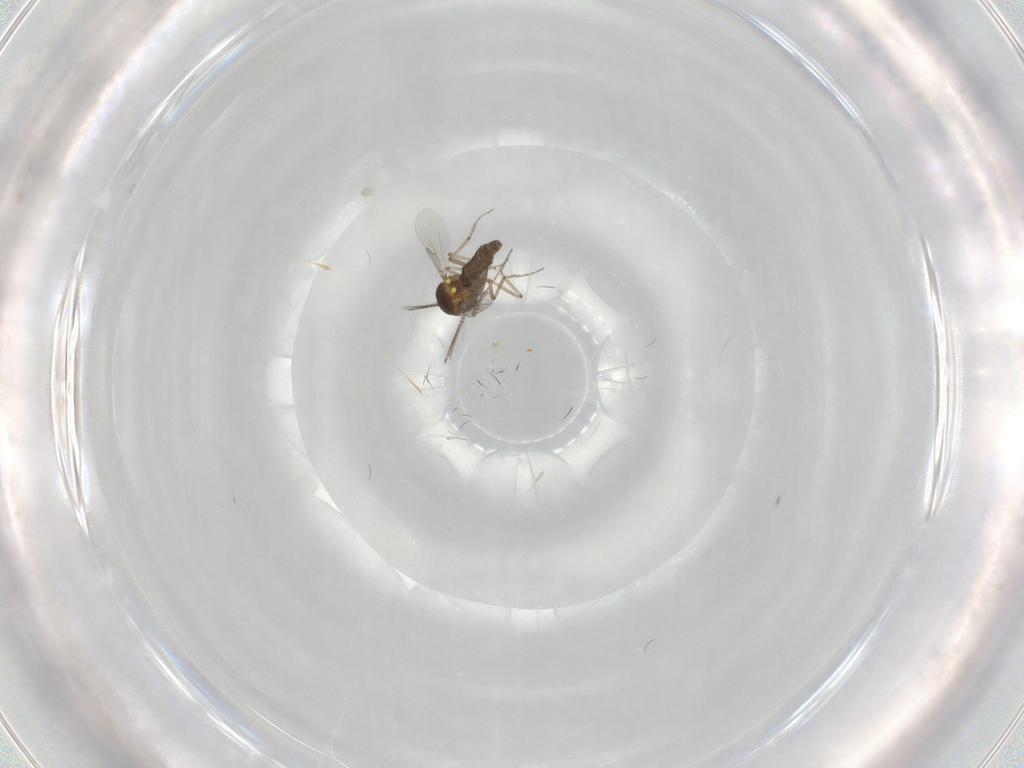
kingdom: Animalia
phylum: Arthropoda
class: Insecta
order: Diptera
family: Ceratopogonidae
